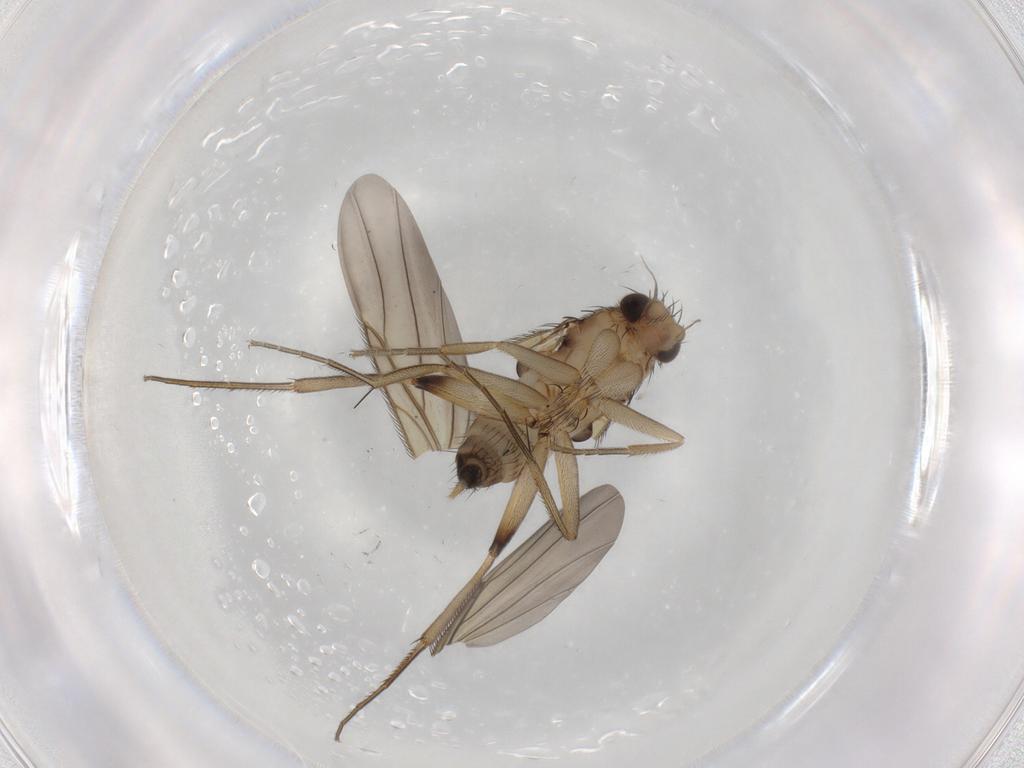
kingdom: Animalia
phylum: Arthropoda
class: Insecta
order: Diptera
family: Phoridae
